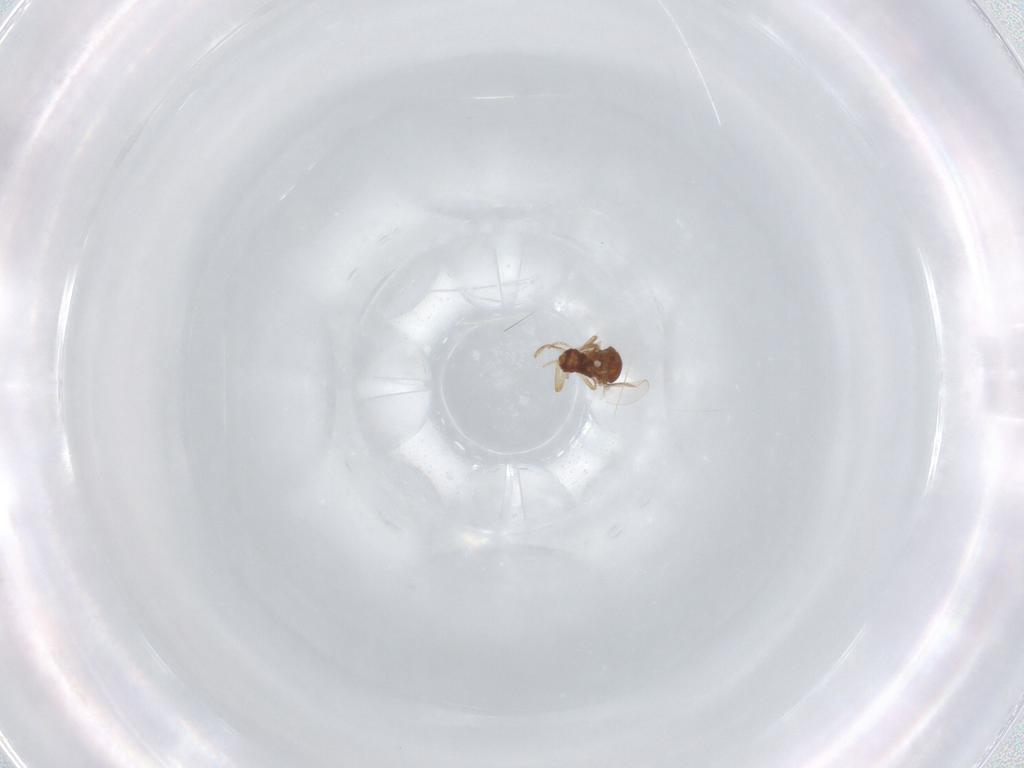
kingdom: Animalia
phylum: Arthropoda
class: Insecta
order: Diptera
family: Ceratopogonidae
